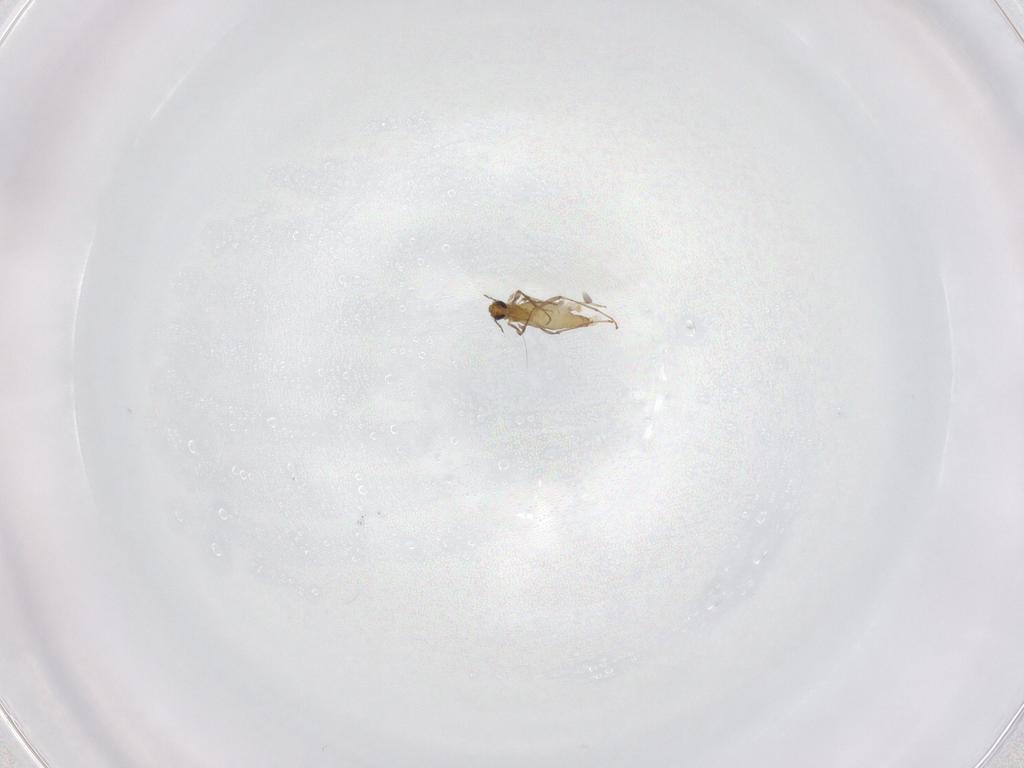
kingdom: Animalia
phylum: Arthropoda
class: Insecta
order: Diptera
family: Chironomidae
